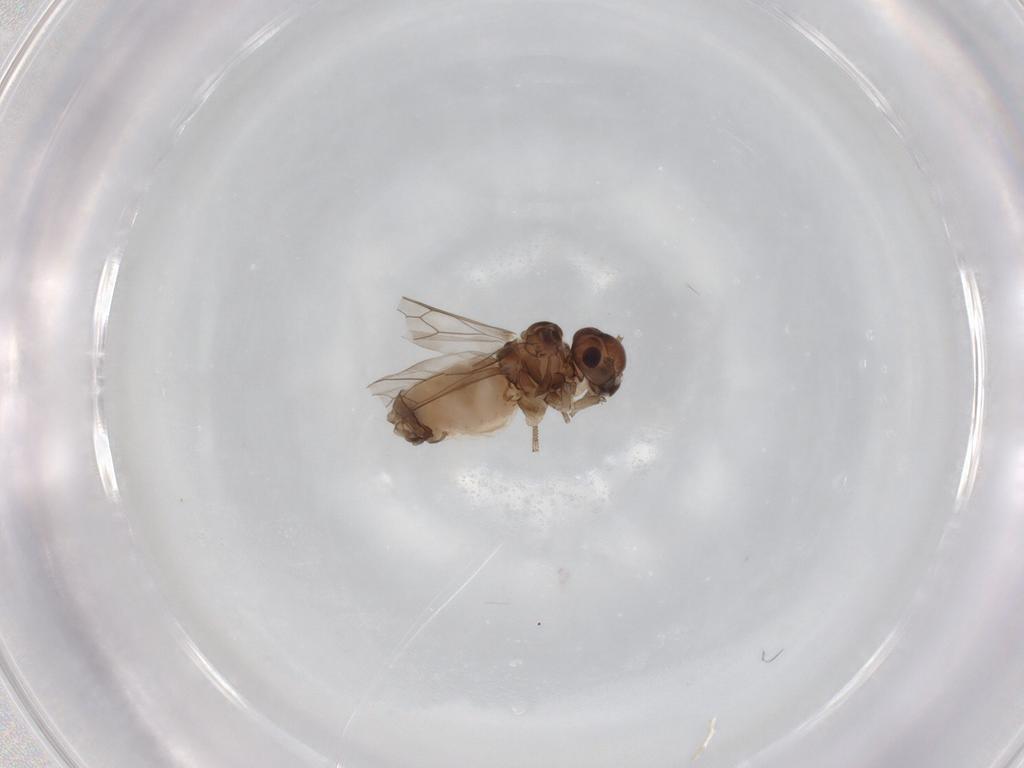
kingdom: Animalia
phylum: Arthropoda
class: Insecta
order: Psocodea
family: Peripsocidae
